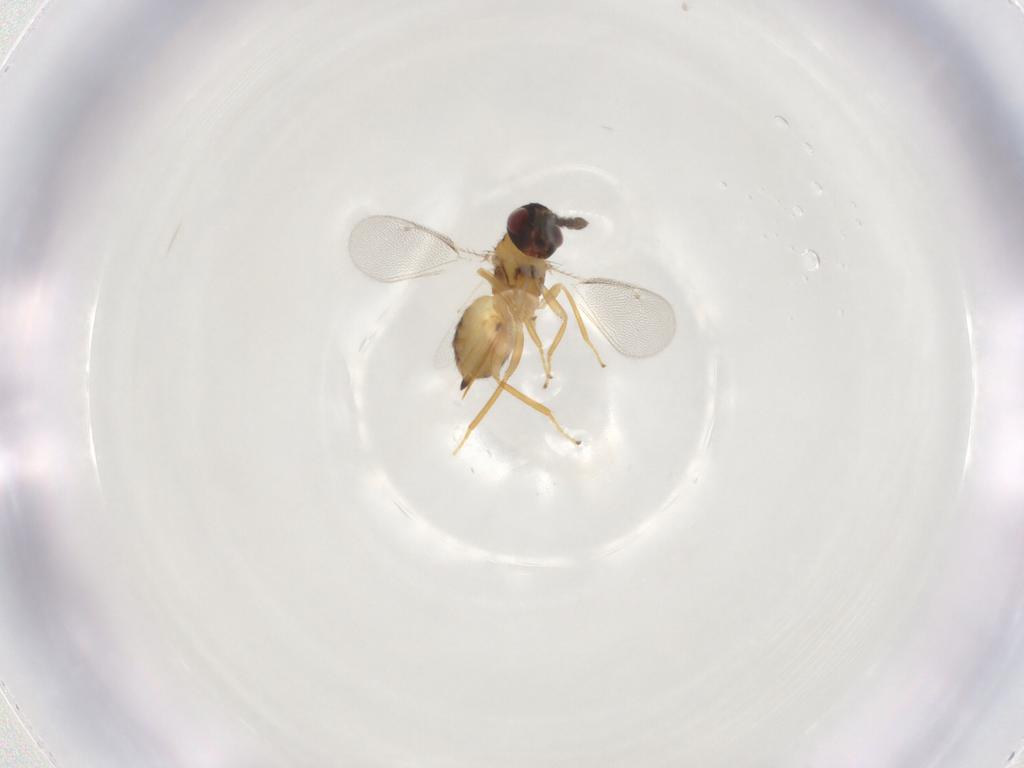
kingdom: Animalia
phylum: Arthropoda
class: Insecta
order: Hymenoptera
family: Eulophidae
